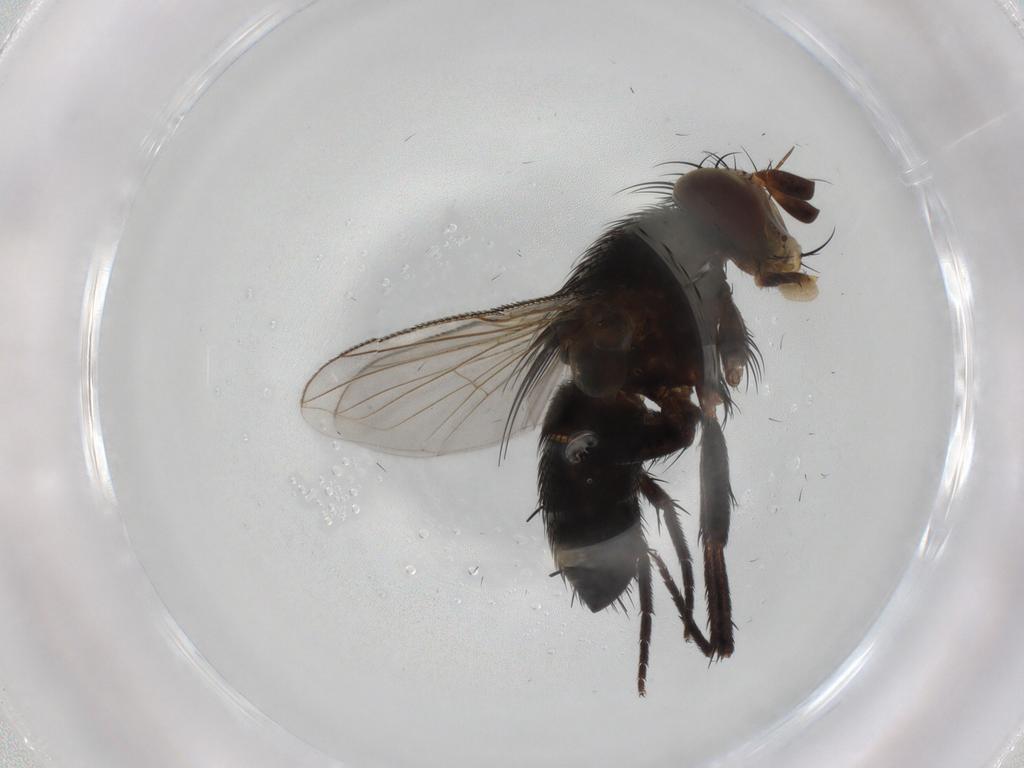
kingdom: Animalia
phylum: Arthropoda
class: Insecta
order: Diptera
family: Tachinidae
